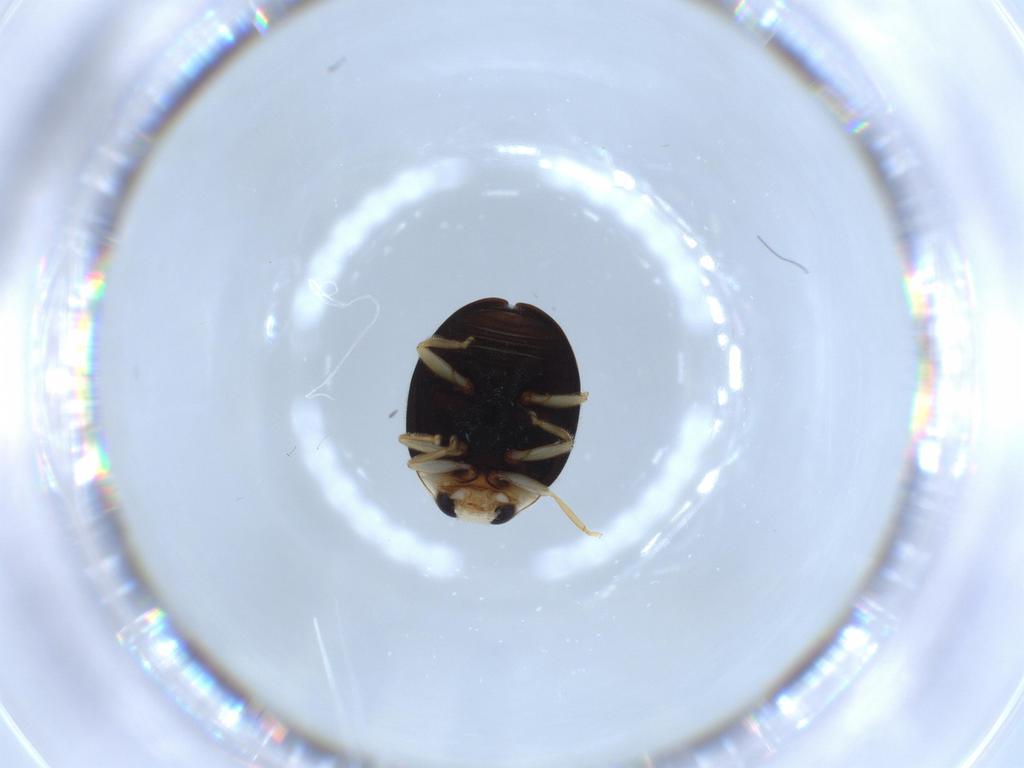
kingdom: Animalia
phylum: Arthropoda
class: Insecta
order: Coleoptera
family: Coccinellidae
